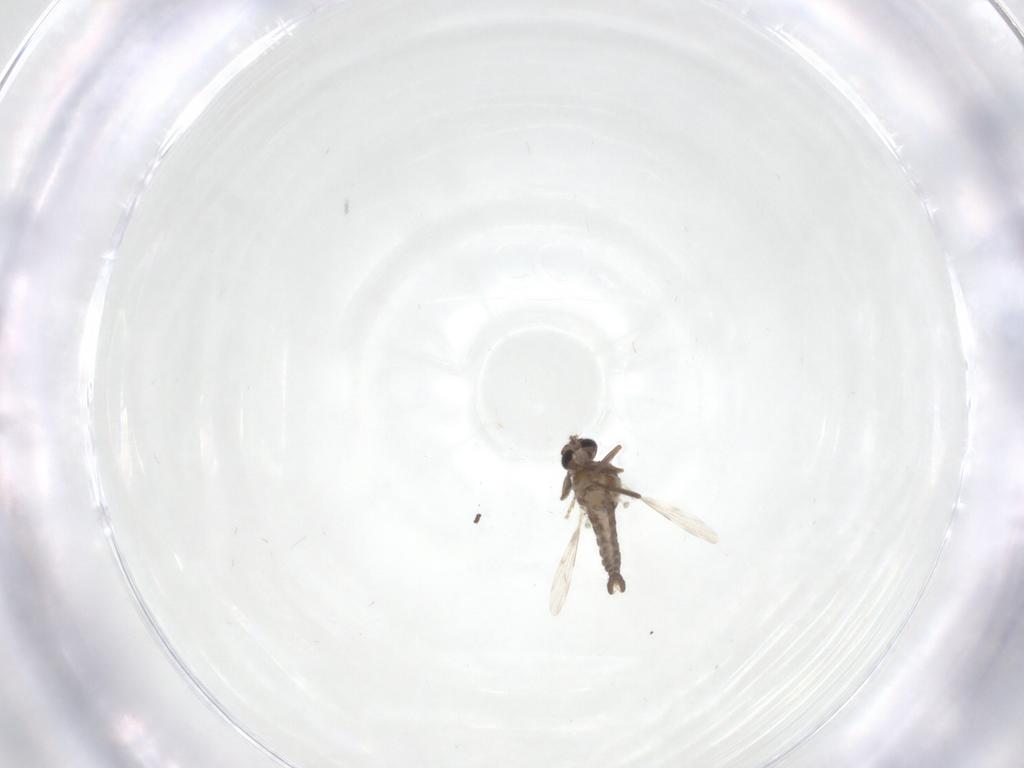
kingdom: Animalia
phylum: Arthropoda
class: Insecta
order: Diptera
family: Ceratopogonidae
